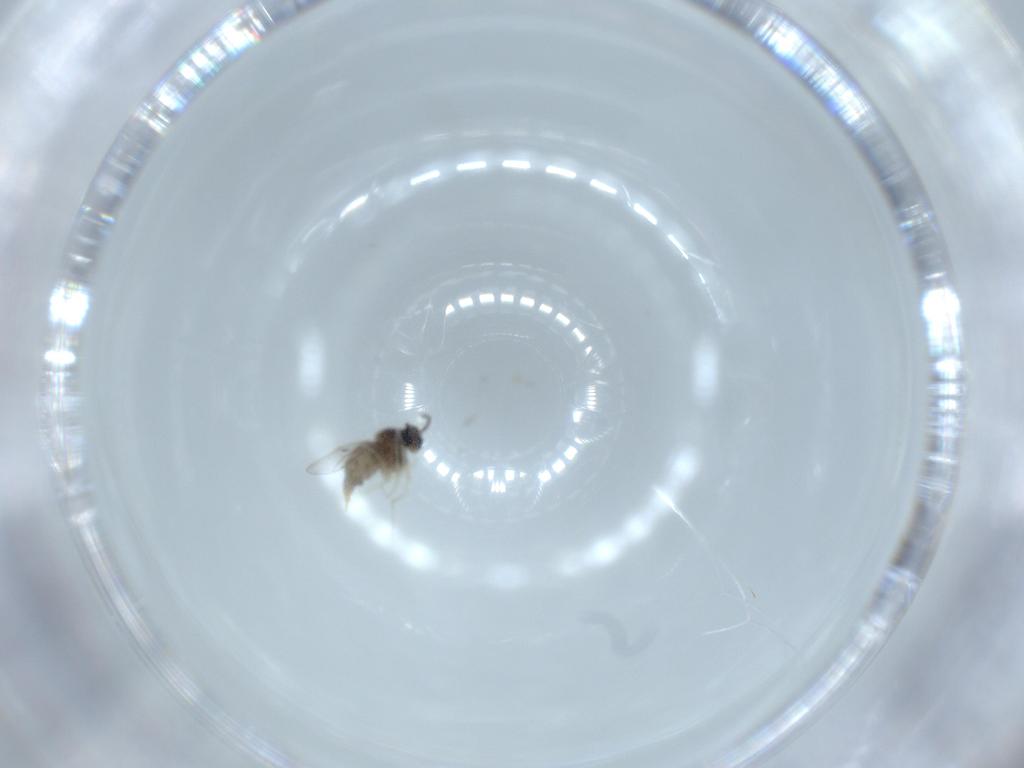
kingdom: Animalia
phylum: Arthropoda
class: Insecta
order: Diptera
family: Cecidomyiidae
